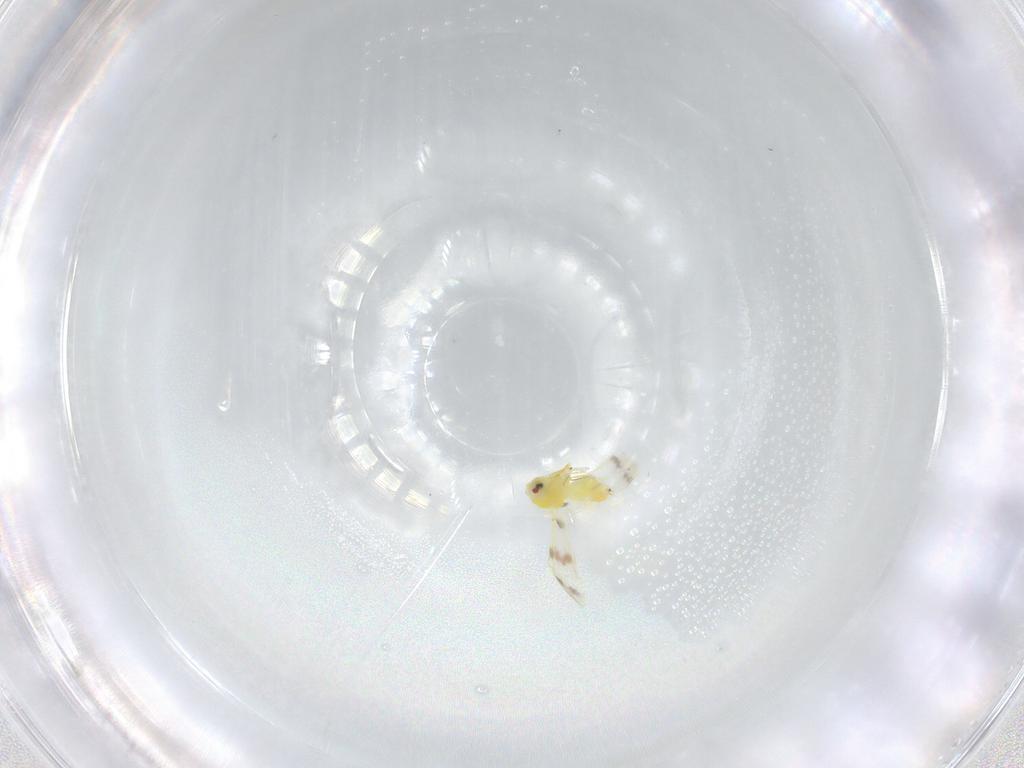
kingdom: Animalia
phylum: Arthropoda
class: Insecta
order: Hemiptera
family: Aleyrodidae
